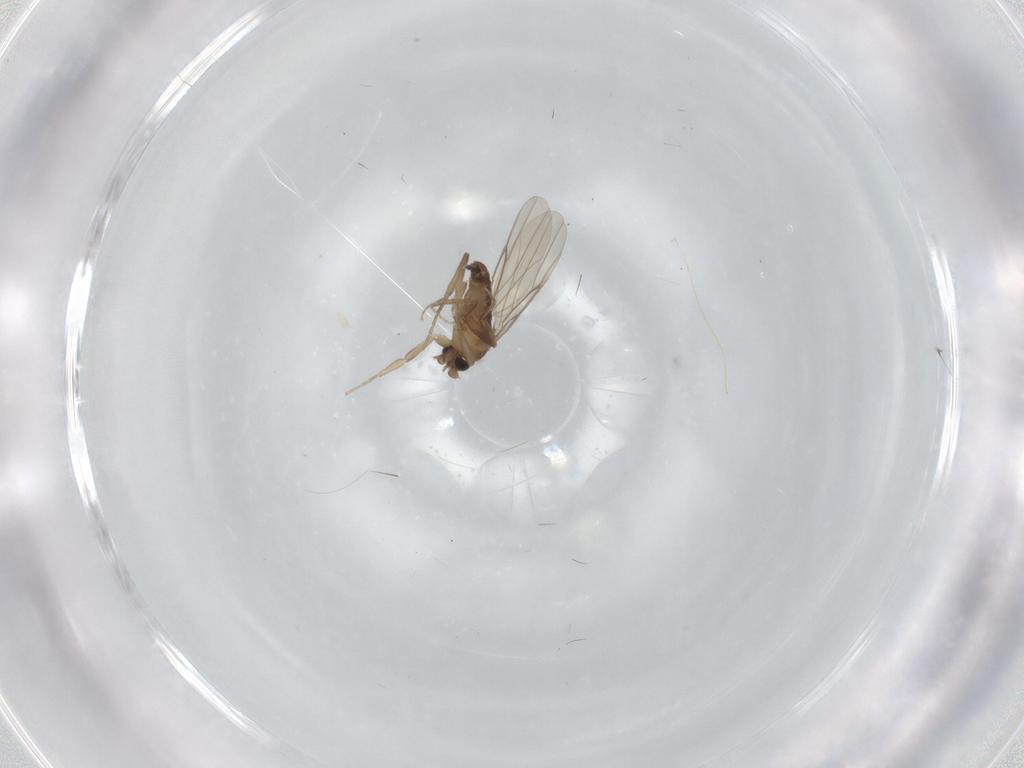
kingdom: Animalia
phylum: Arthropoda
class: Insecta
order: Diptera
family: Phoridae
